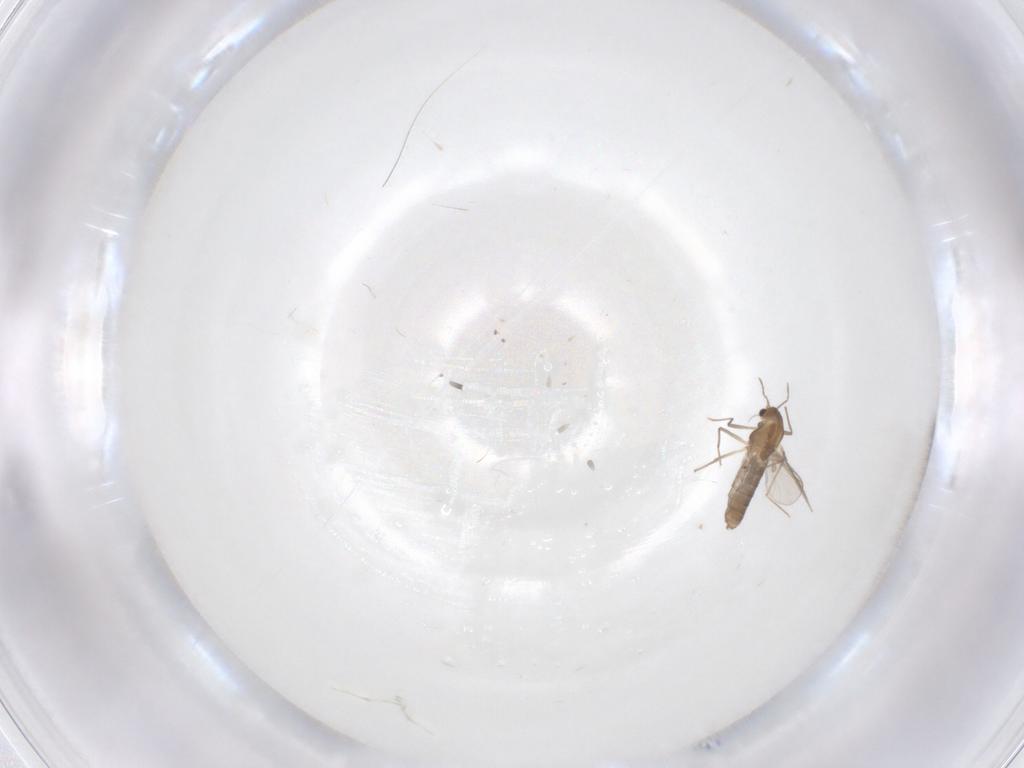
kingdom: Animalia
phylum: Arthropoda
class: Insecta
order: Diptera
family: Chironomidae
